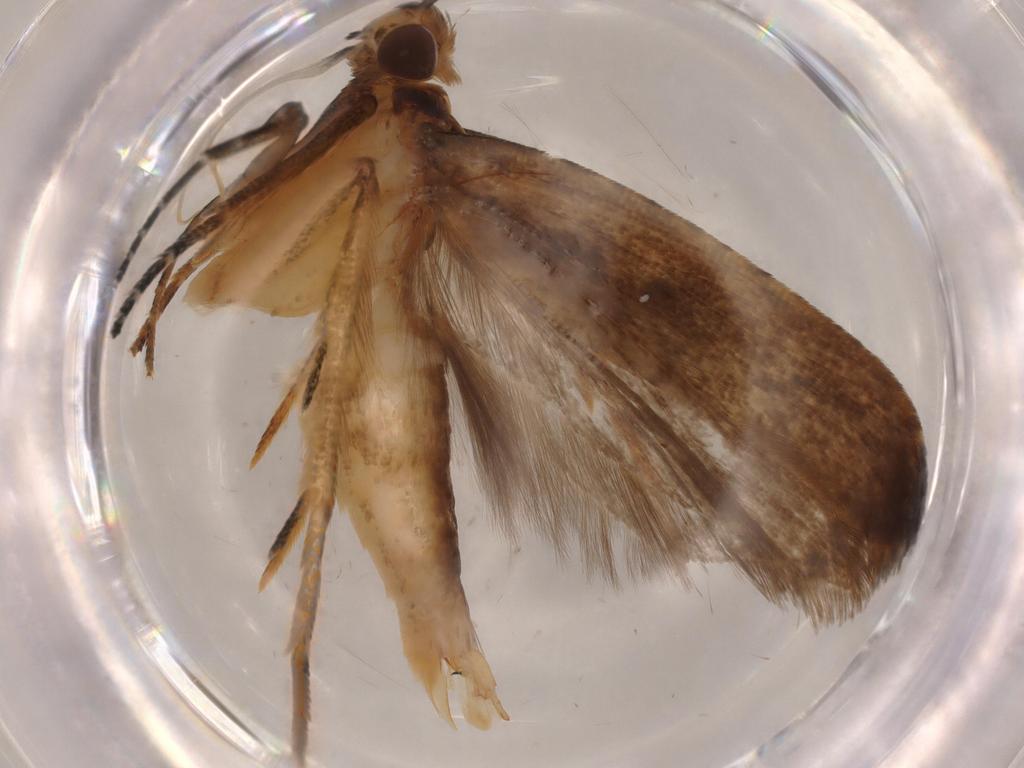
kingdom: Animalia
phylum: Arthropoda
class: Insecta
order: Lepidoptera
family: Gelechiidae
